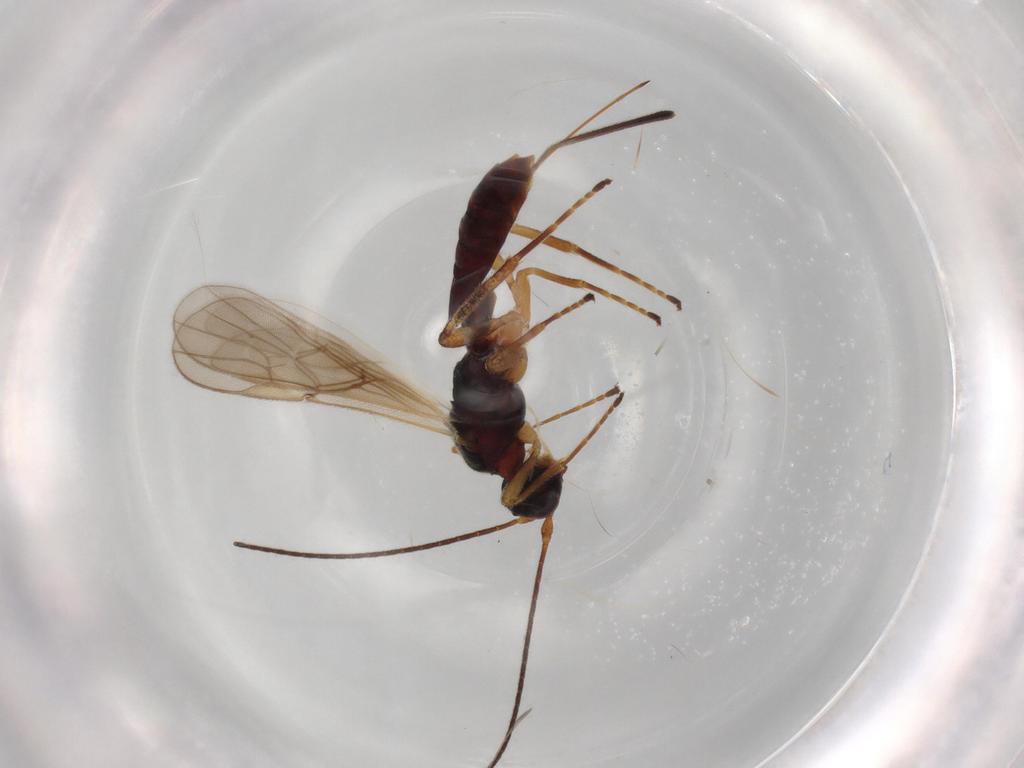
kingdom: Animalia
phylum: Arthropoda
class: Insecta
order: Hymenoptera
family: Braconidae
